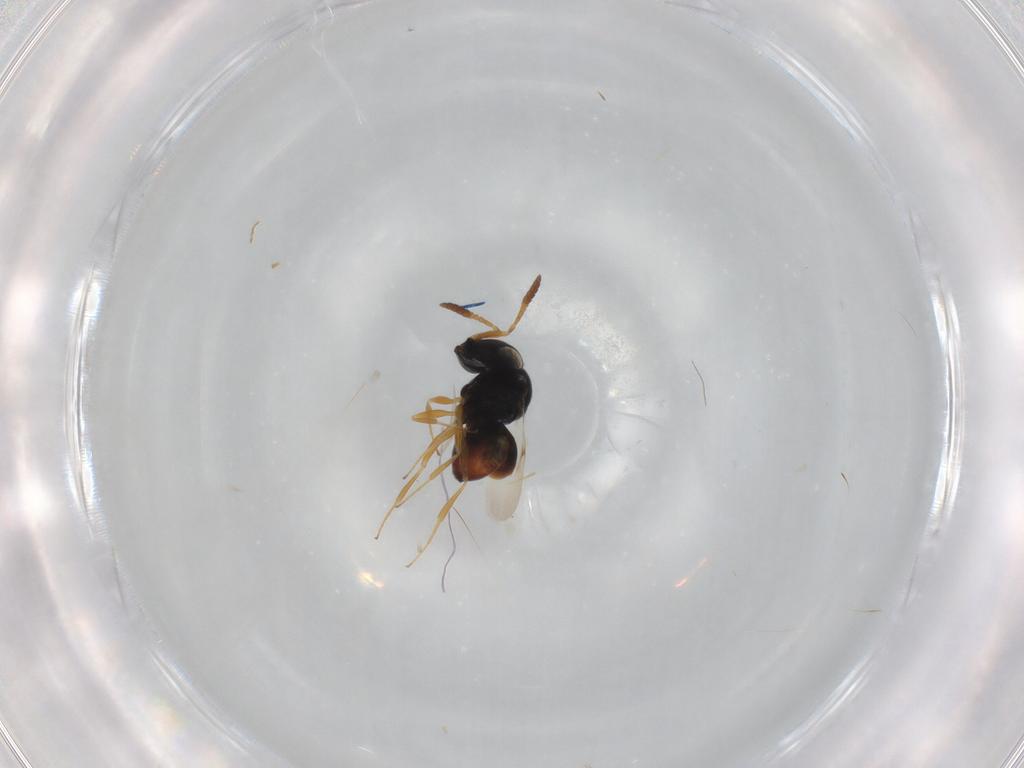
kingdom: Animalia
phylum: Arthropoda
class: Insecta
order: Hymenoptera
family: Scelionidae
